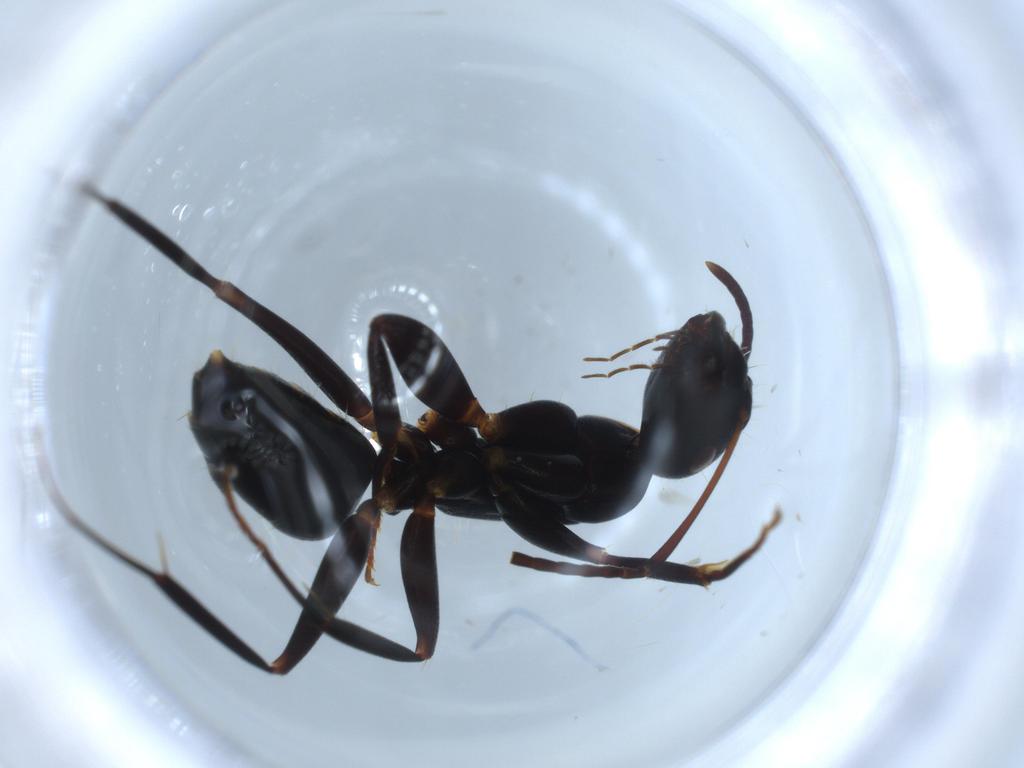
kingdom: Animalia
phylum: Arthropoda
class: Insecta
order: Hymenoptera
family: Formicidae
